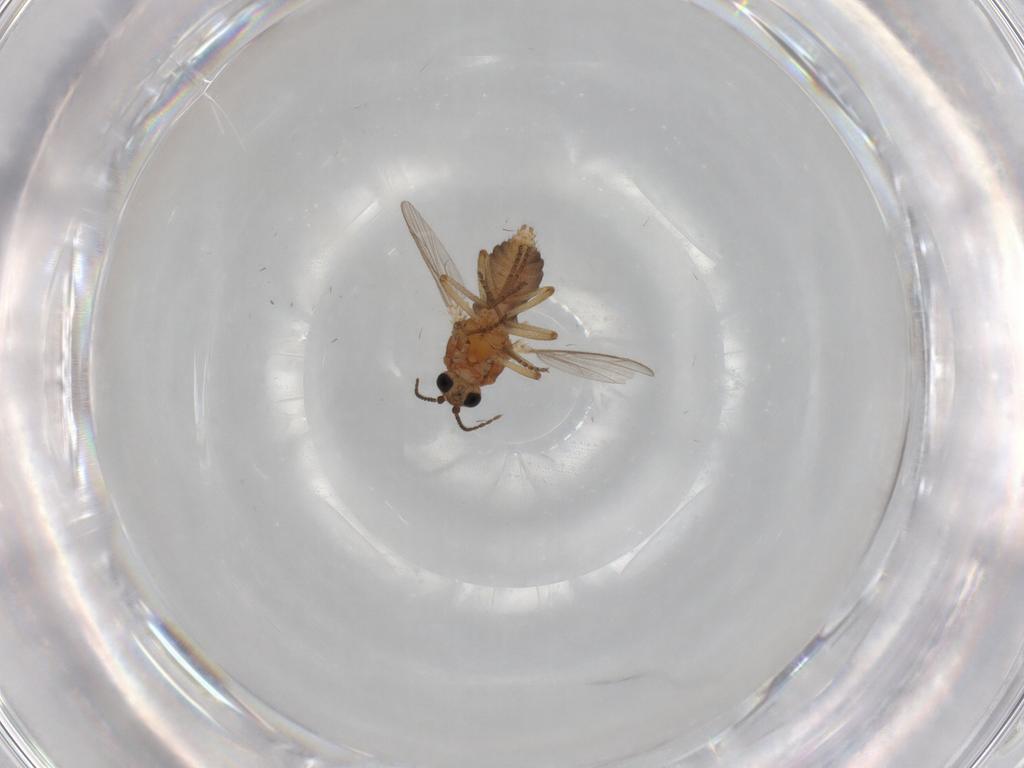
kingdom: Animalia
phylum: Arthropoda
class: Insecta
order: Diptera
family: Ceratopogonidae
